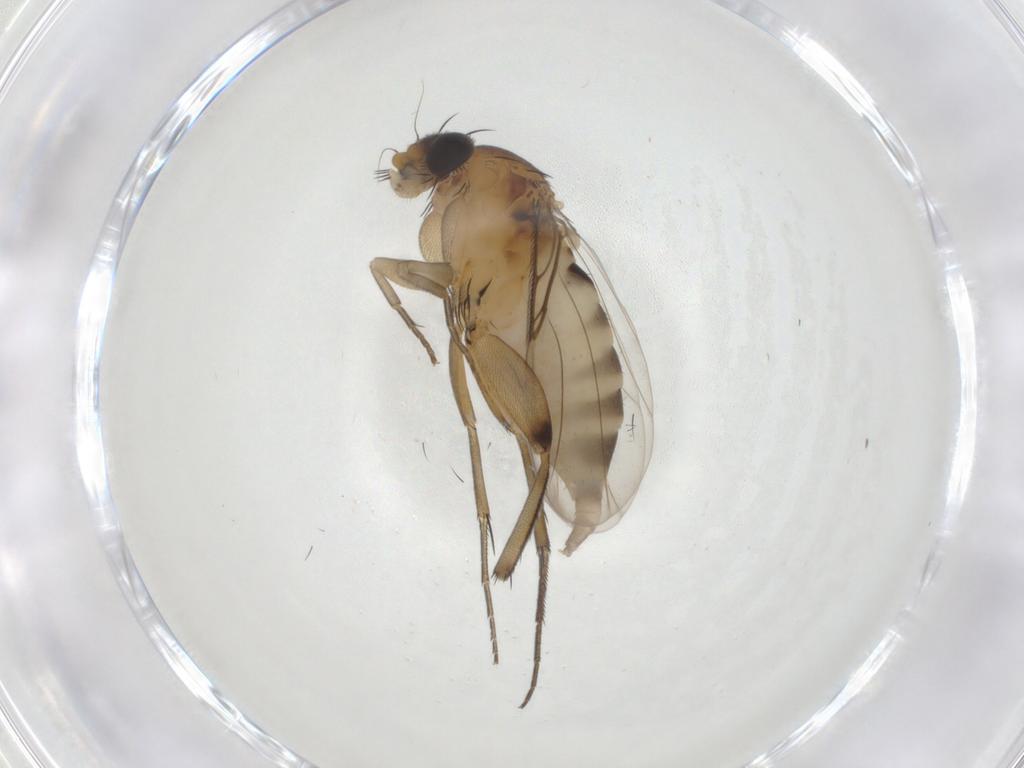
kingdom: Animalia
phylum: Arthropoda
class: Insecta
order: Diptera
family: Phoridae
